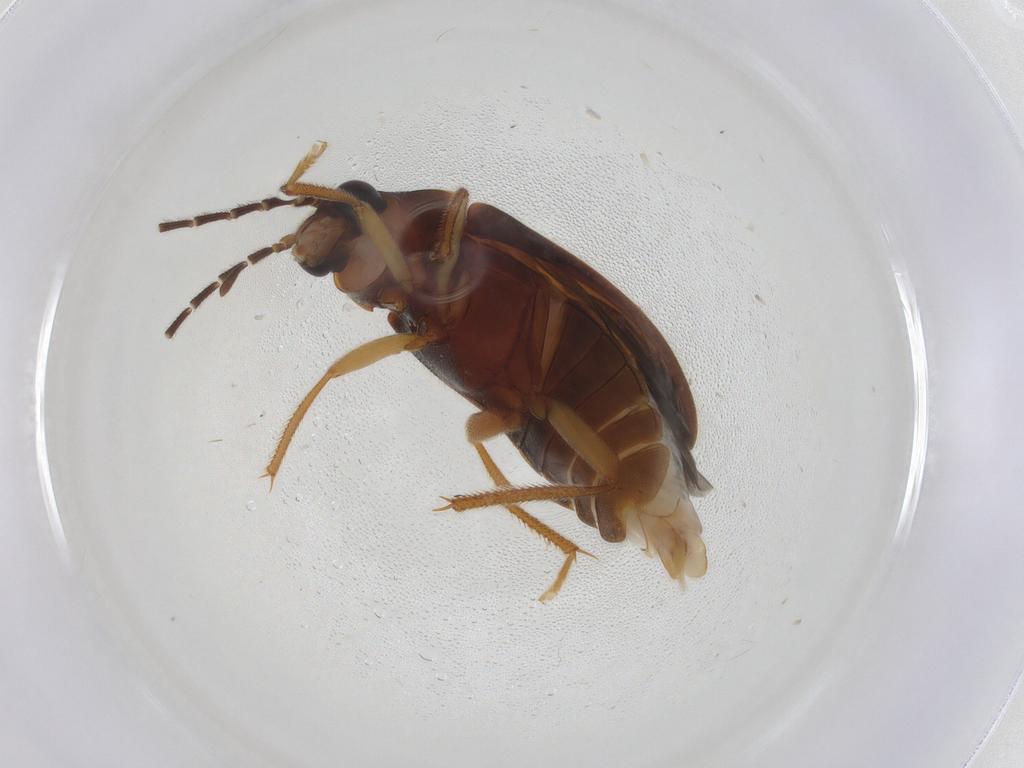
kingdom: Animalia
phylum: Arthropoda
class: Insecta
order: Coleoptera
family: Ptilodactylidae
